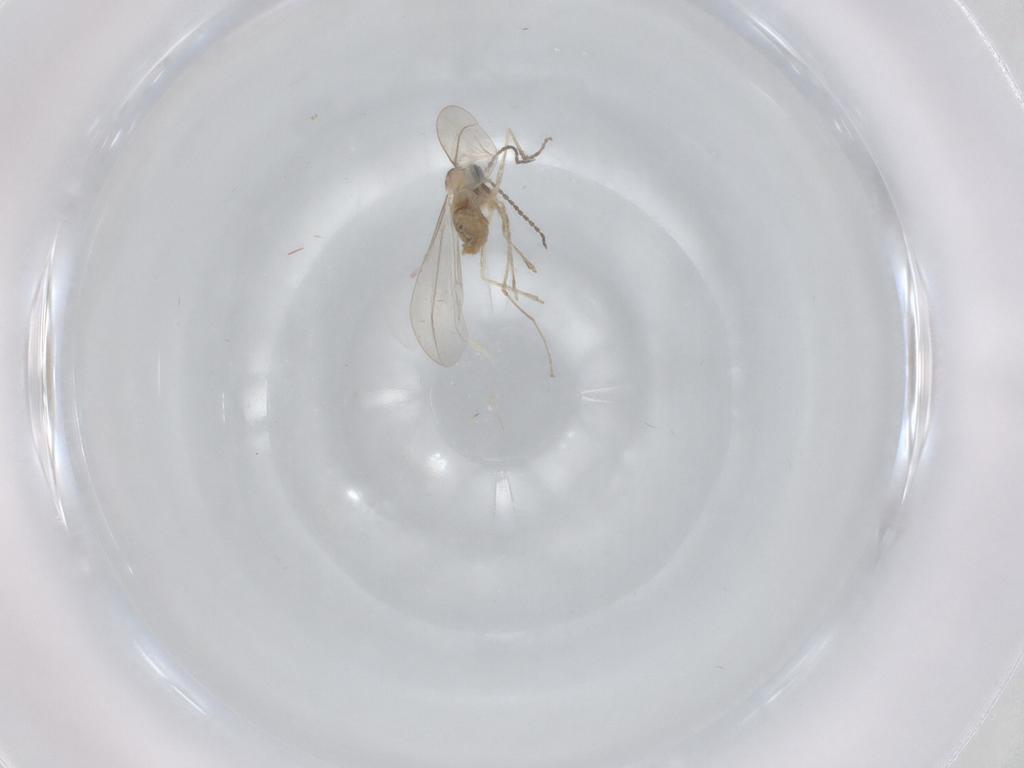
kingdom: Animalia
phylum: Arthropoda
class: Insecta
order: Diptera
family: Cecidomyiidae
